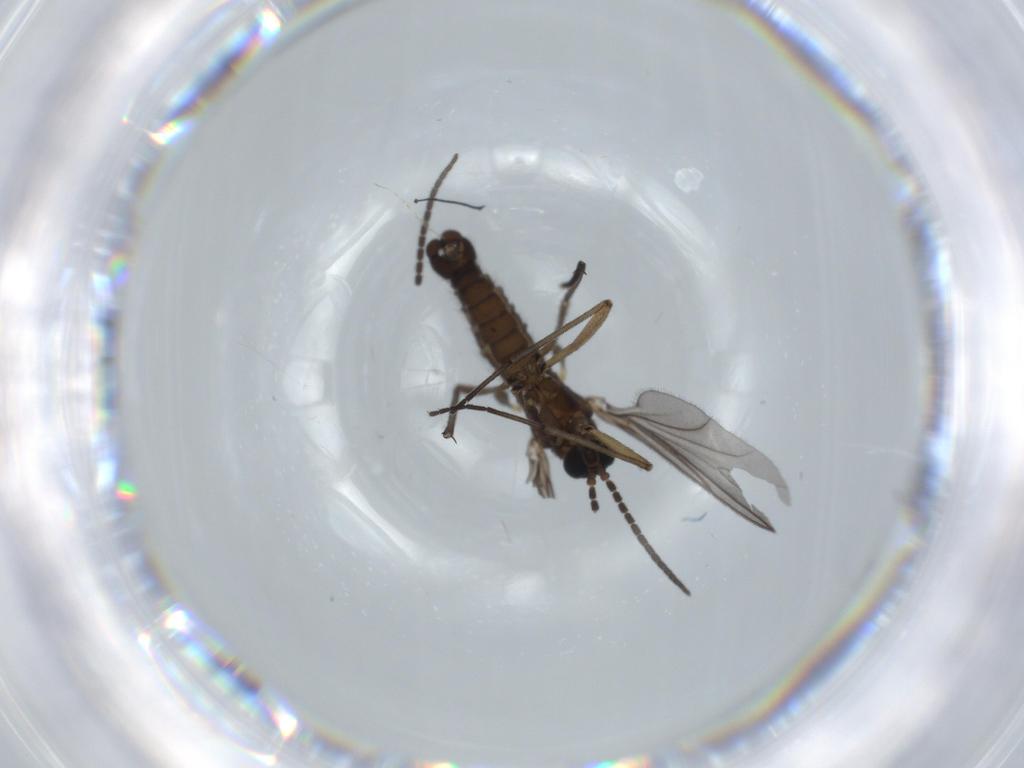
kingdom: Animalia
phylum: Arthropoda
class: Insecta
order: Diptera
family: Sciaridae
